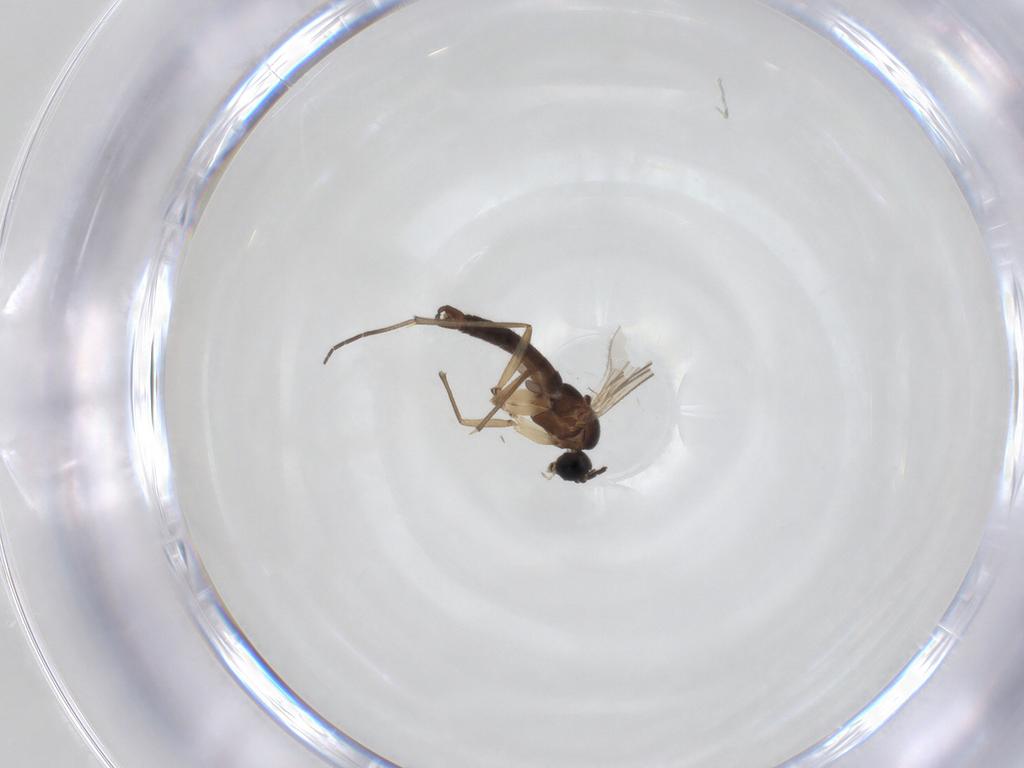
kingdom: Animalia
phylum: Arthropoda
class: Insecta
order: Diptera
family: Sciaridae
